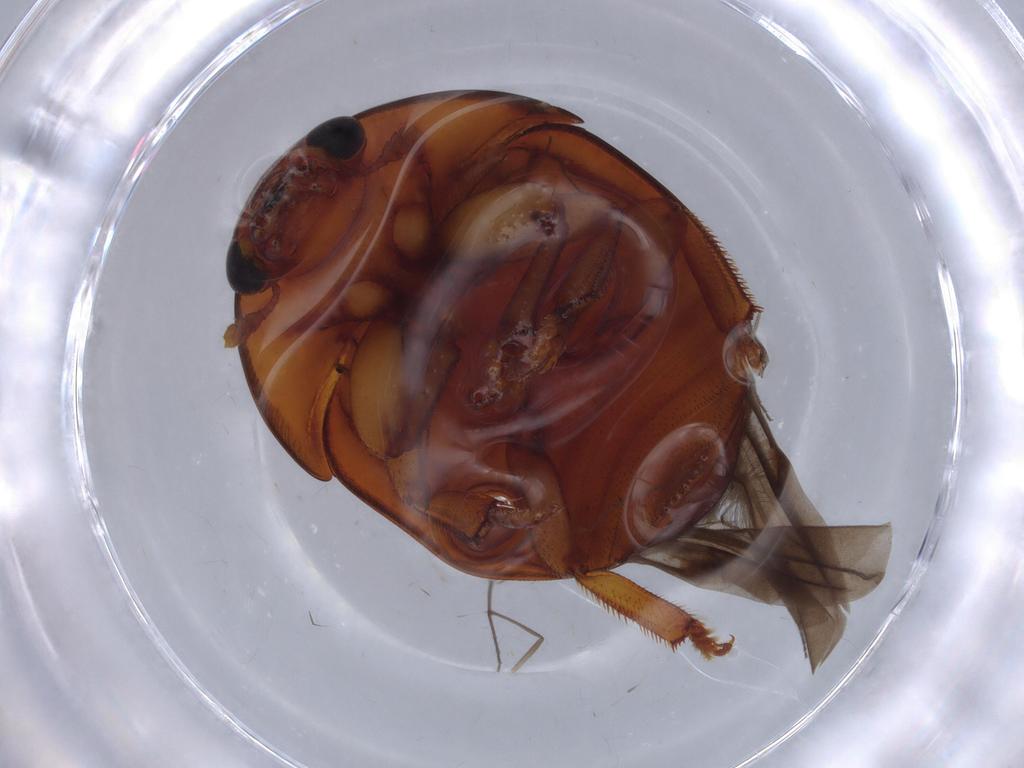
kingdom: Animalia
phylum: Arthropoda
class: Insecta
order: Coleoptera
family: Nitidulidae
